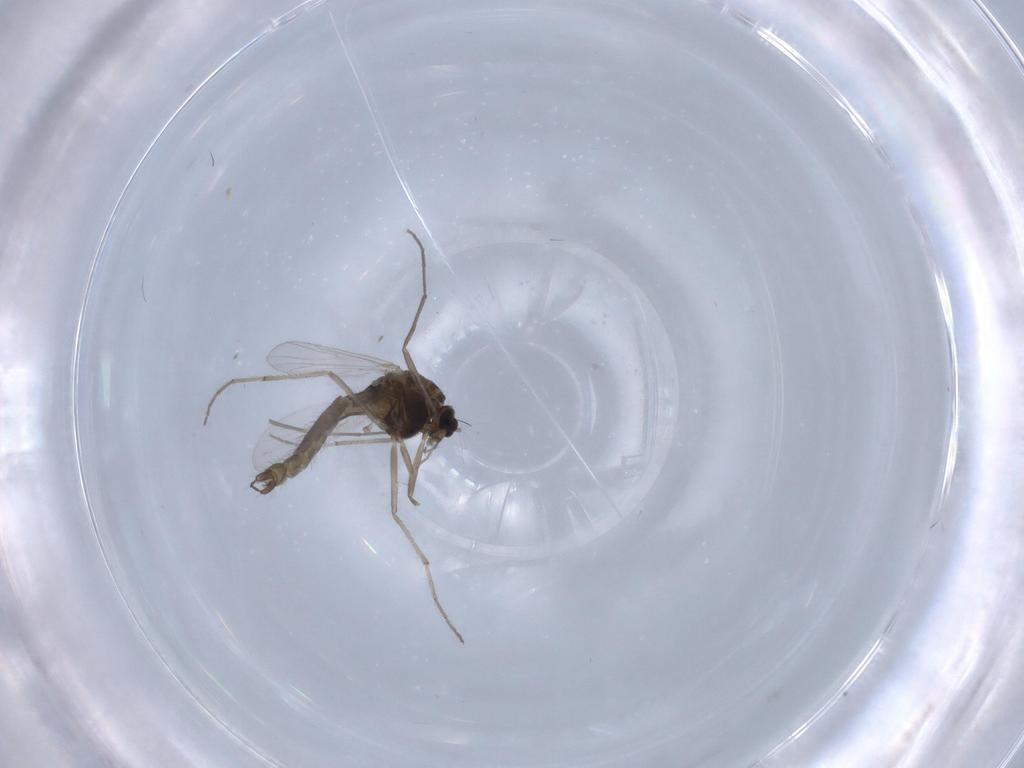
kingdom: Animalia
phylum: Arthropoda
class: Insecta
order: Diptera
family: Chironomidae
